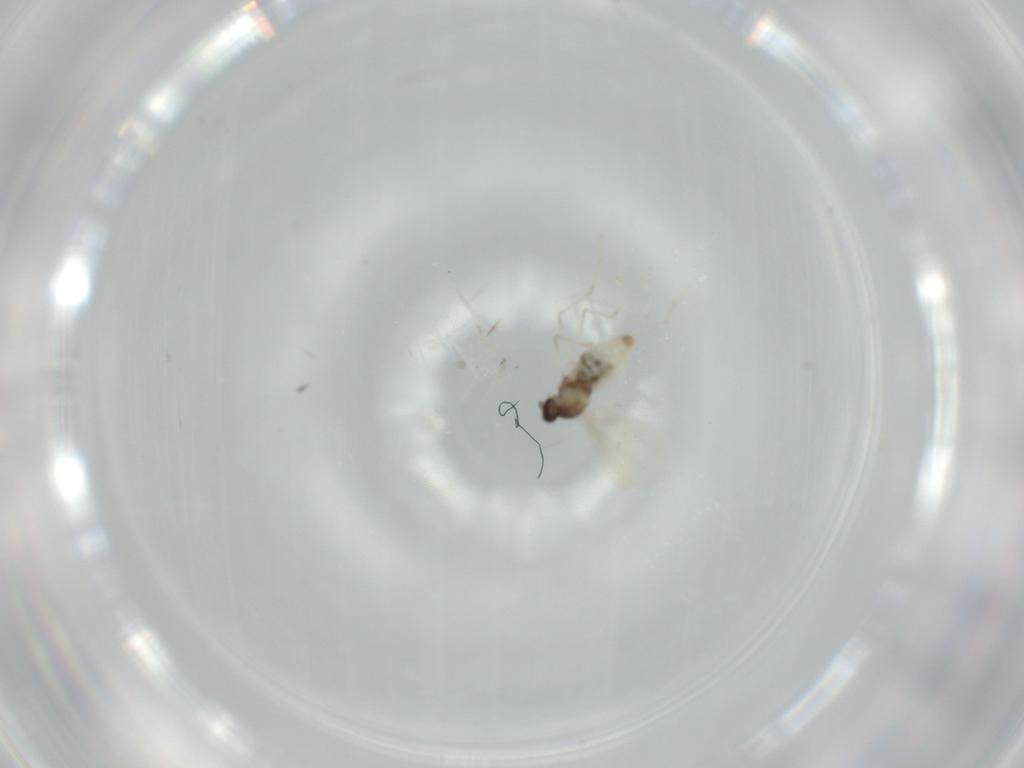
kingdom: Animalia
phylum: Arthropoda
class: Insecta
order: Diptera
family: Cecidomyiidae
